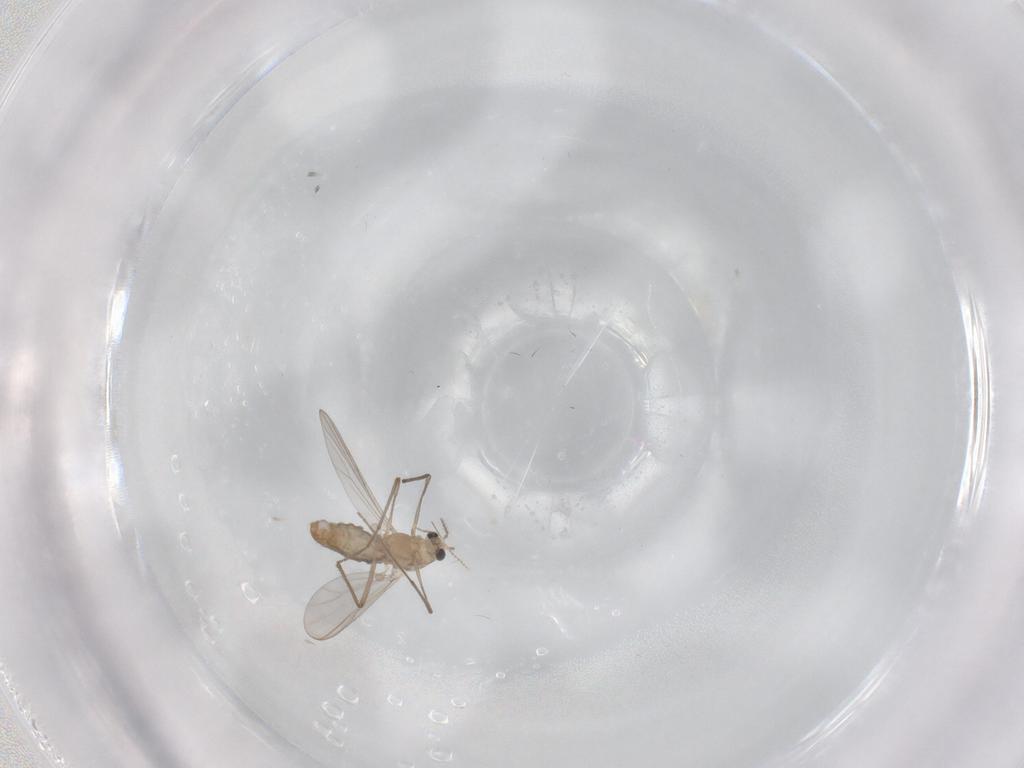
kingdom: Animalia
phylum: Arthropoda
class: Insecta
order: Diptera
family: Chironomidae
